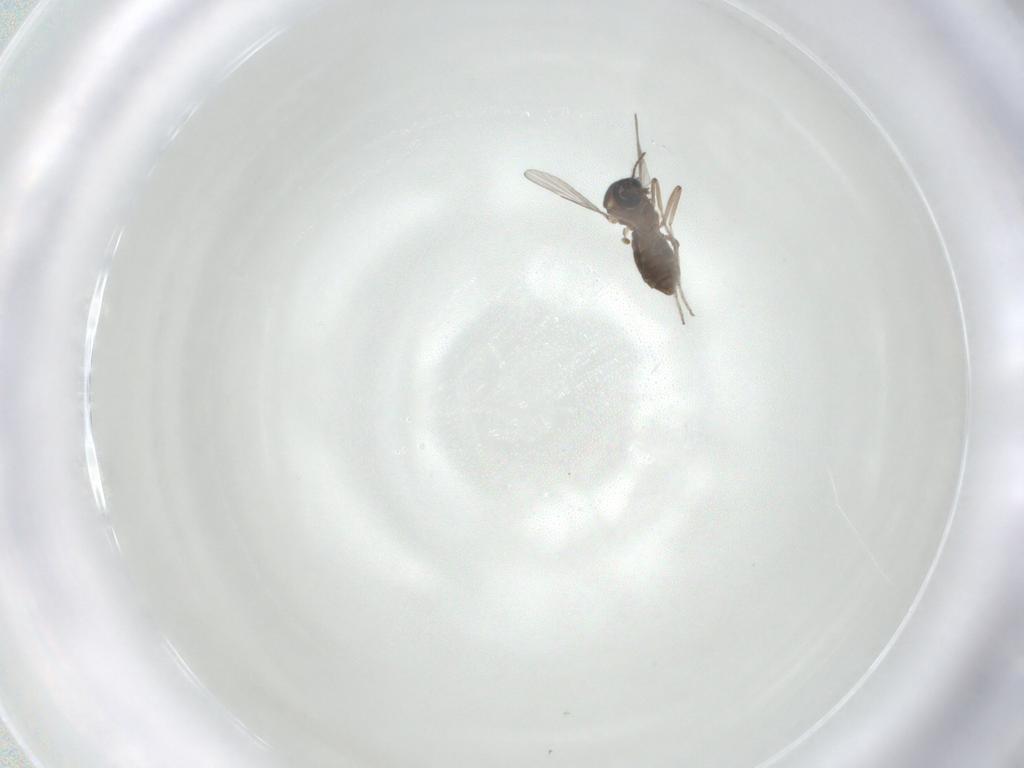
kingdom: Animalia
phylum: Arthropoda
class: Insecta
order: Diptera
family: Ceratopogonidae
